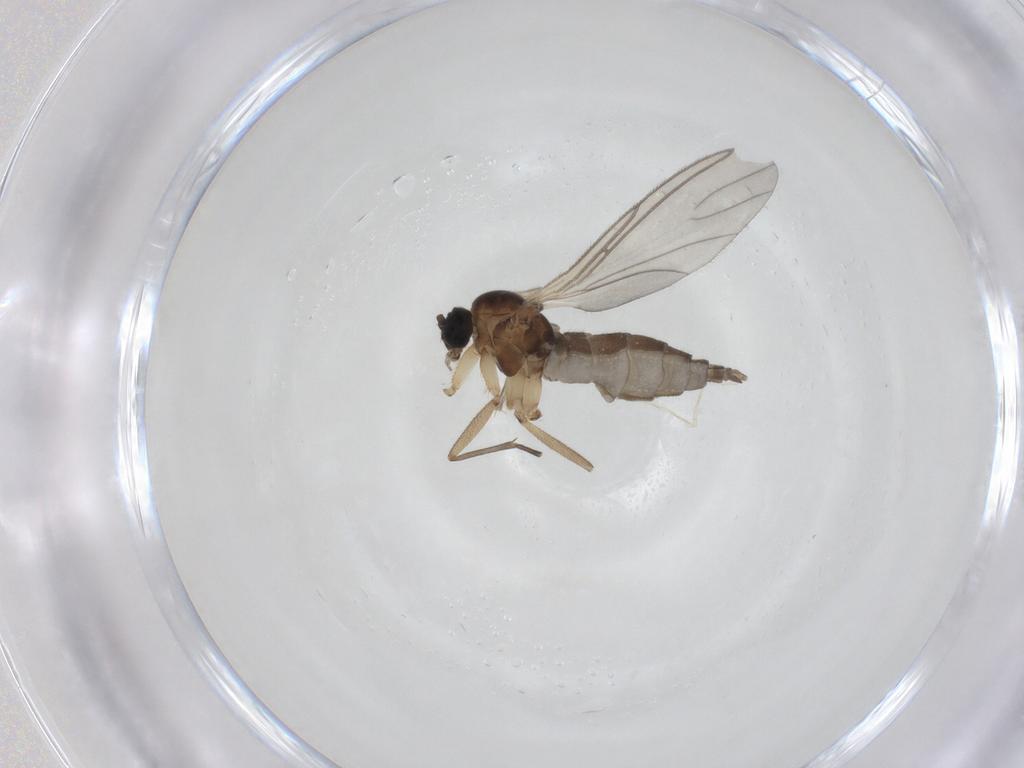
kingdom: Animalia
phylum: Arthropoda
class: Insecta
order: Diptera
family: Sciaridae
